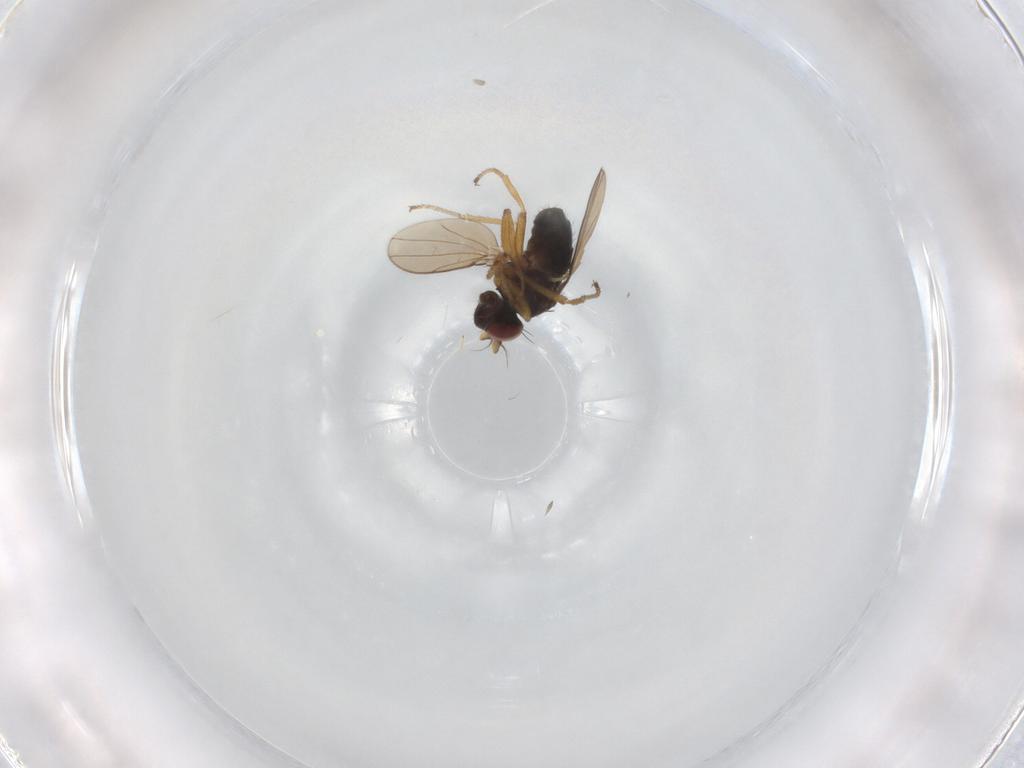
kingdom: Animalia
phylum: Arthropoda
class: Insecta
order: Diptera
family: Ephydridae
